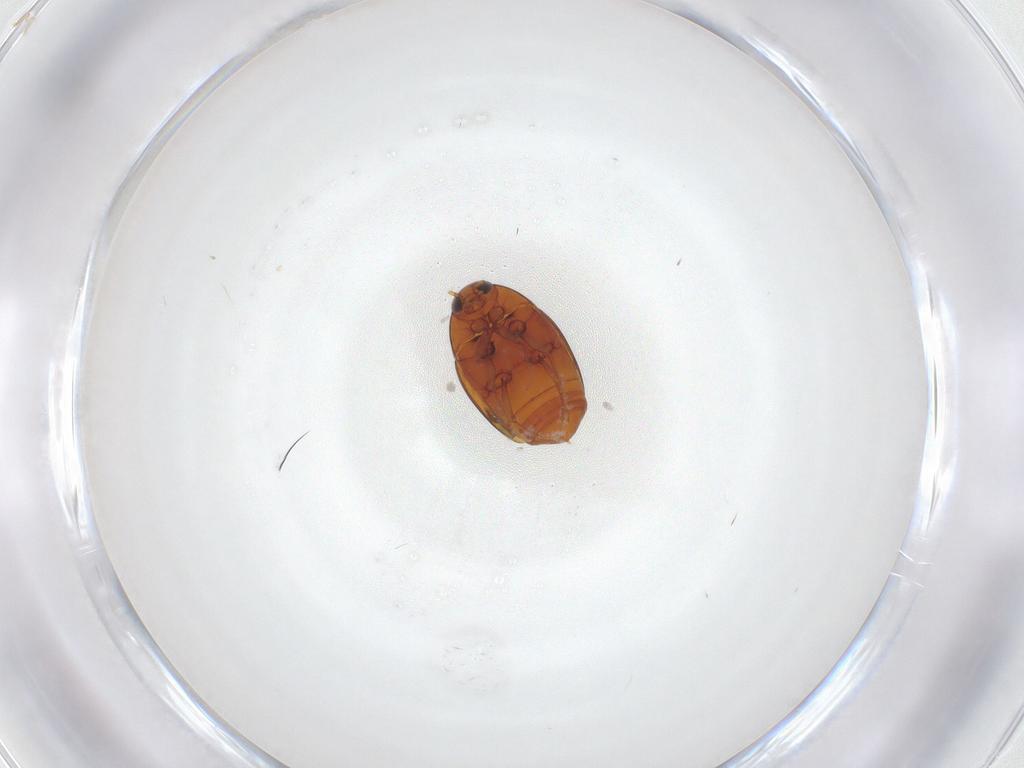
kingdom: Animalia
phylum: Arthropoda
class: Insecta
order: Coleoptera
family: Staphylinidae
